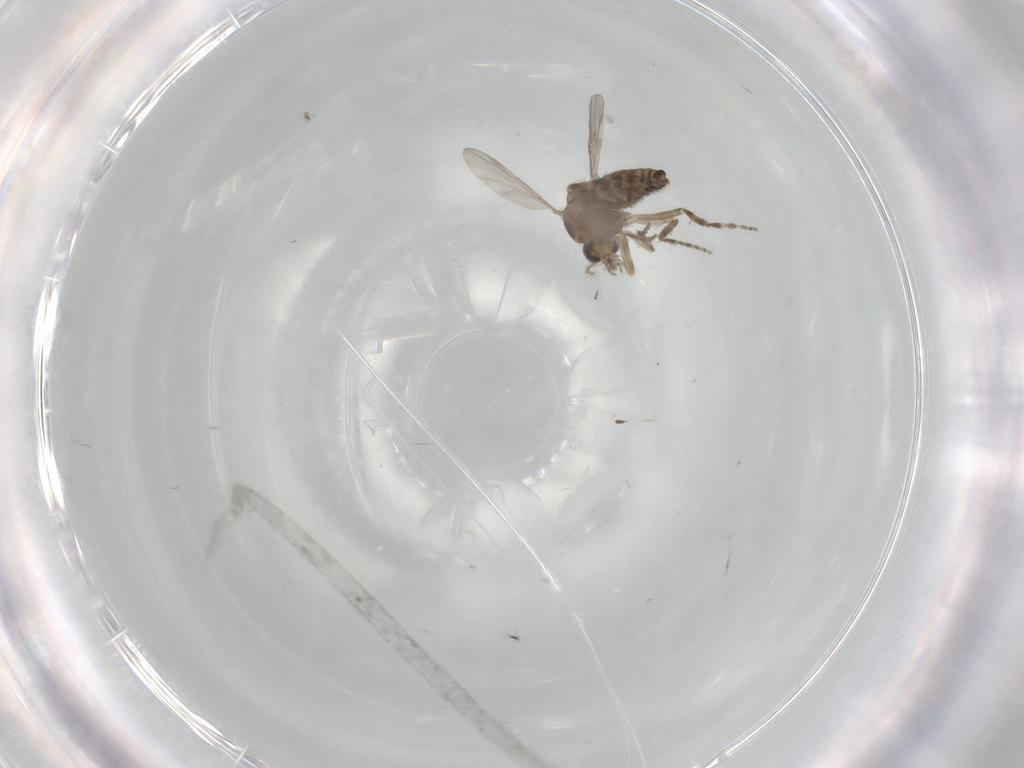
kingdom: Animalia
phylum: Arthropoda
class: Insecta
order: Diptera
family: Ceratopogonidae
